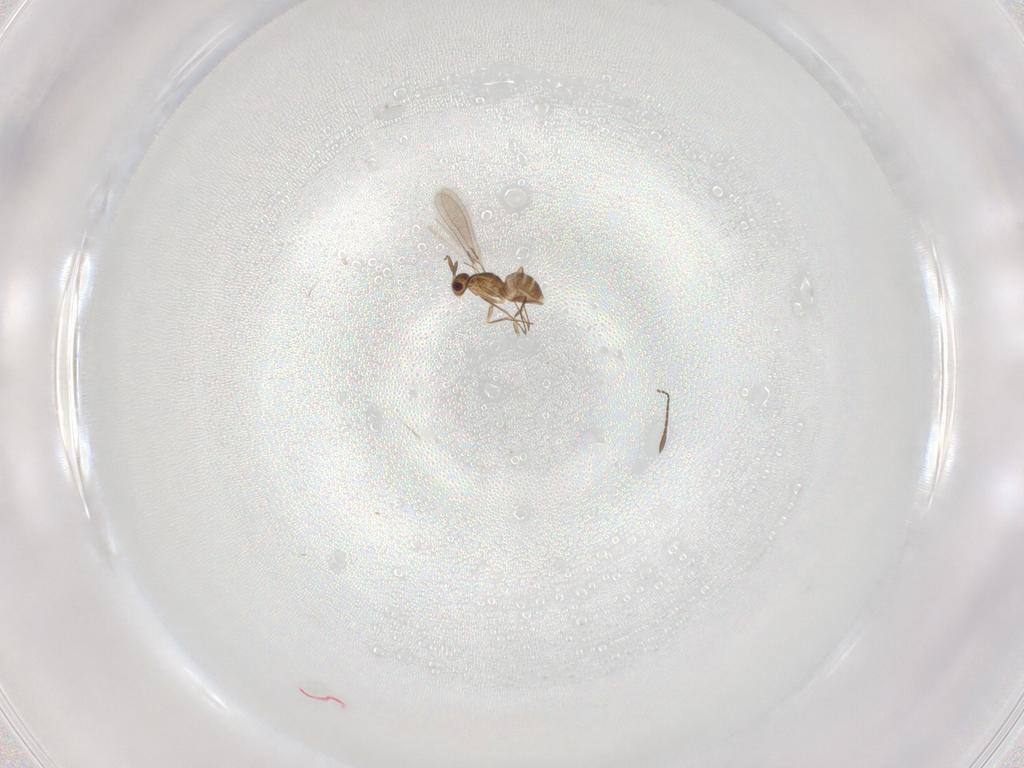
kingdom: Animalia
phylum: Arthropoda
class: Insecta
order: Hymenoptera
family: Mymaridae
